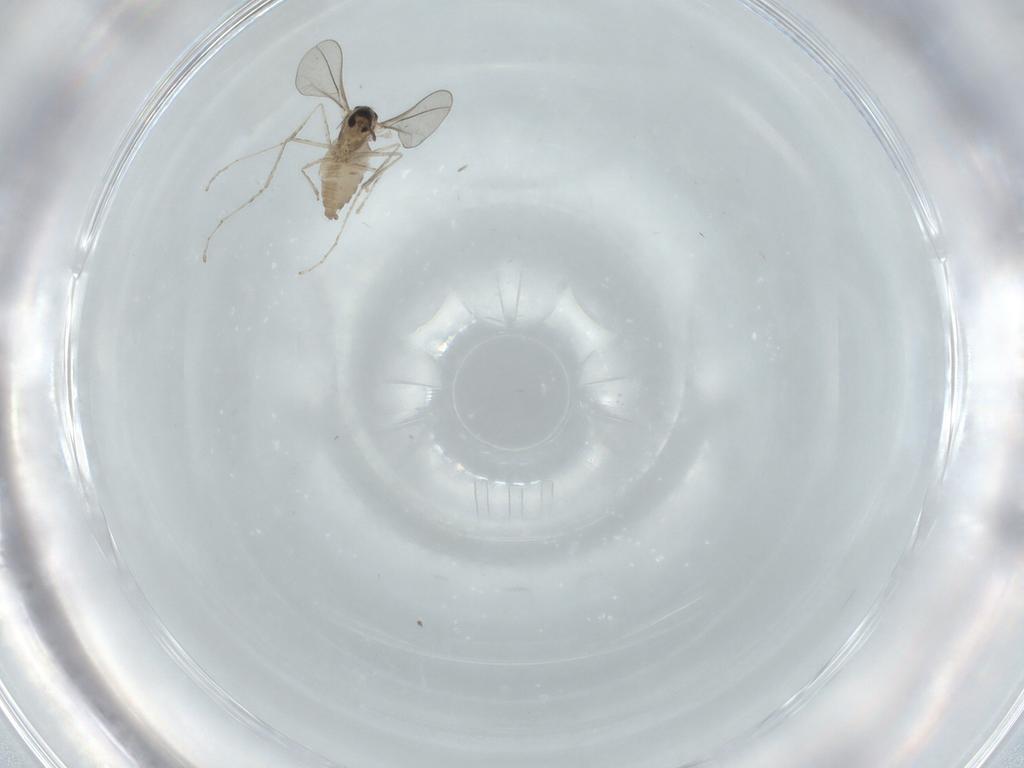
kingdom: Animalia
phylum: Arthropoda
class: Insecta
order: Diptera
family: Cecidomyiidae
